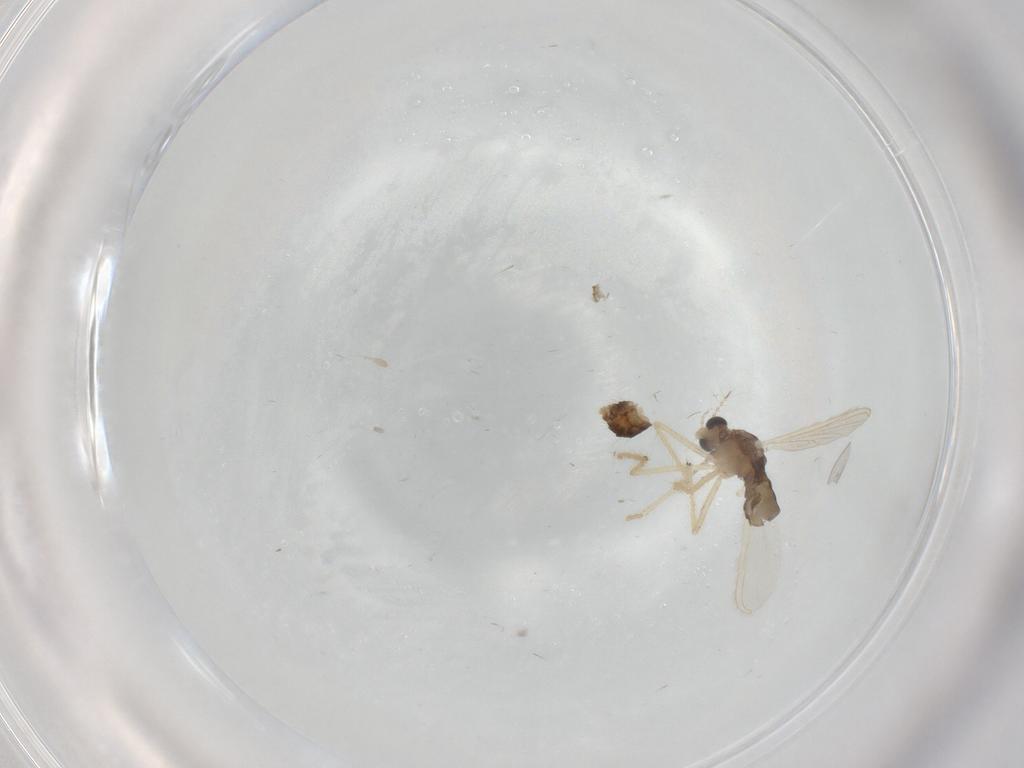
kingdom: Animalia
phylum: Arthropoda
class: Insecta
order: Diptera
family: Chironomidae
